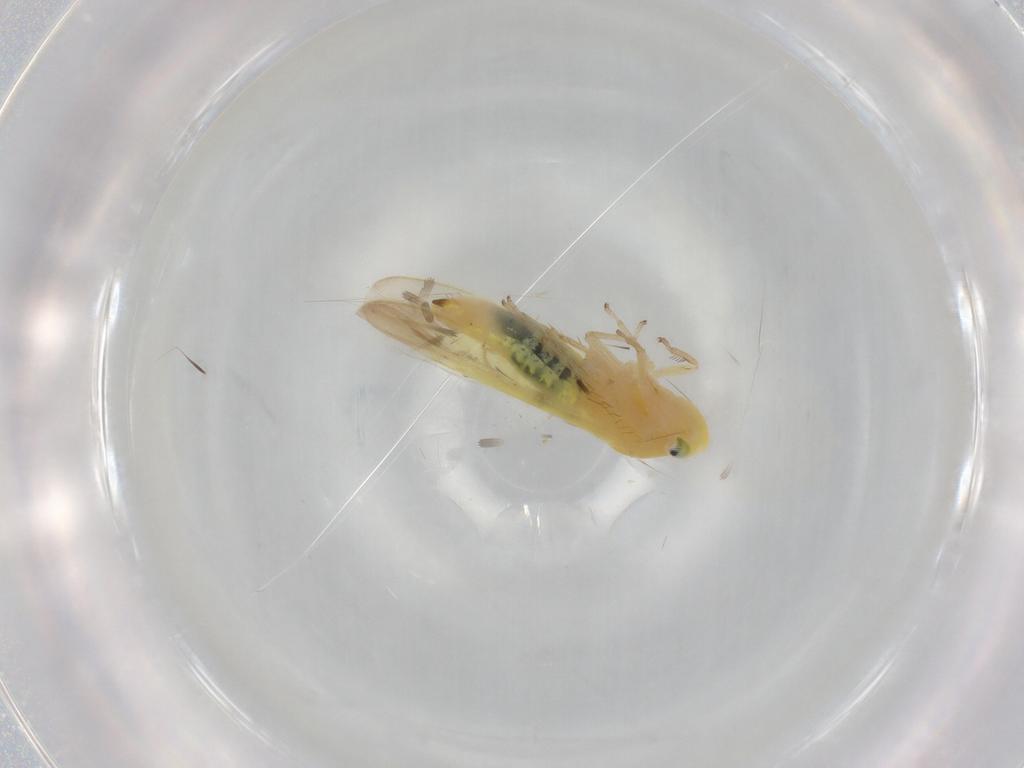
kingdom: Animalia
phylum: Arthropoda
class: Insecta
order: Hemiptera
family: Cicadellidae
